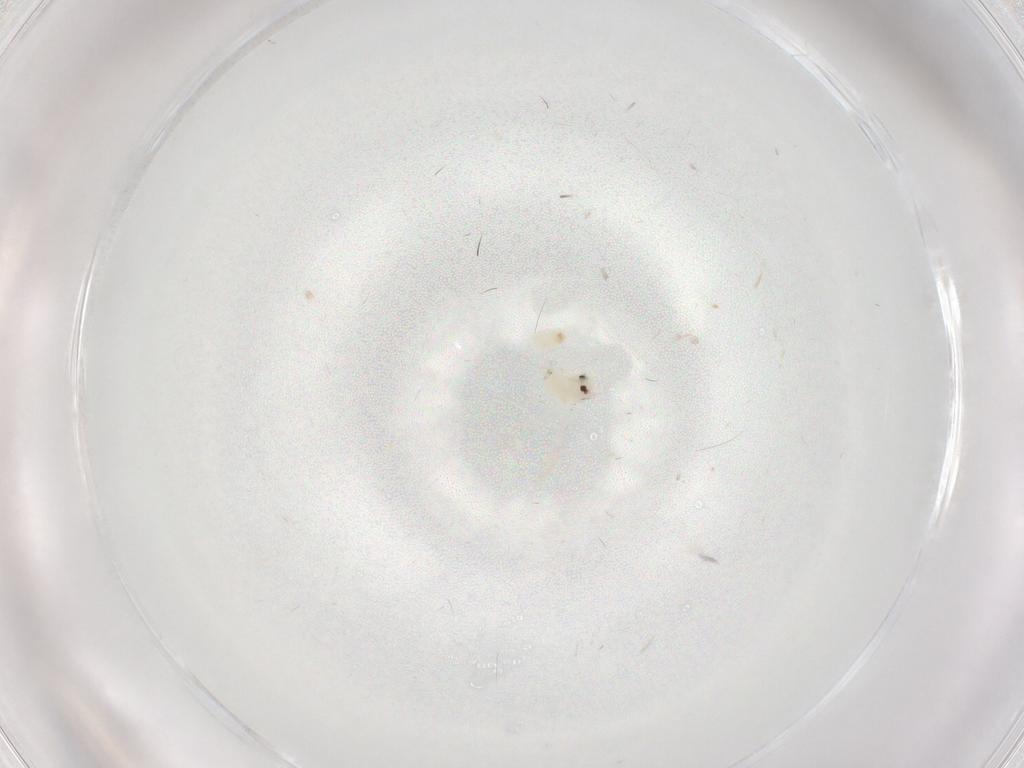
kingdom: Animalia
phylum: Arthropoda
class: Insecta
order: Hemiptera
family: Aleyrodidae
